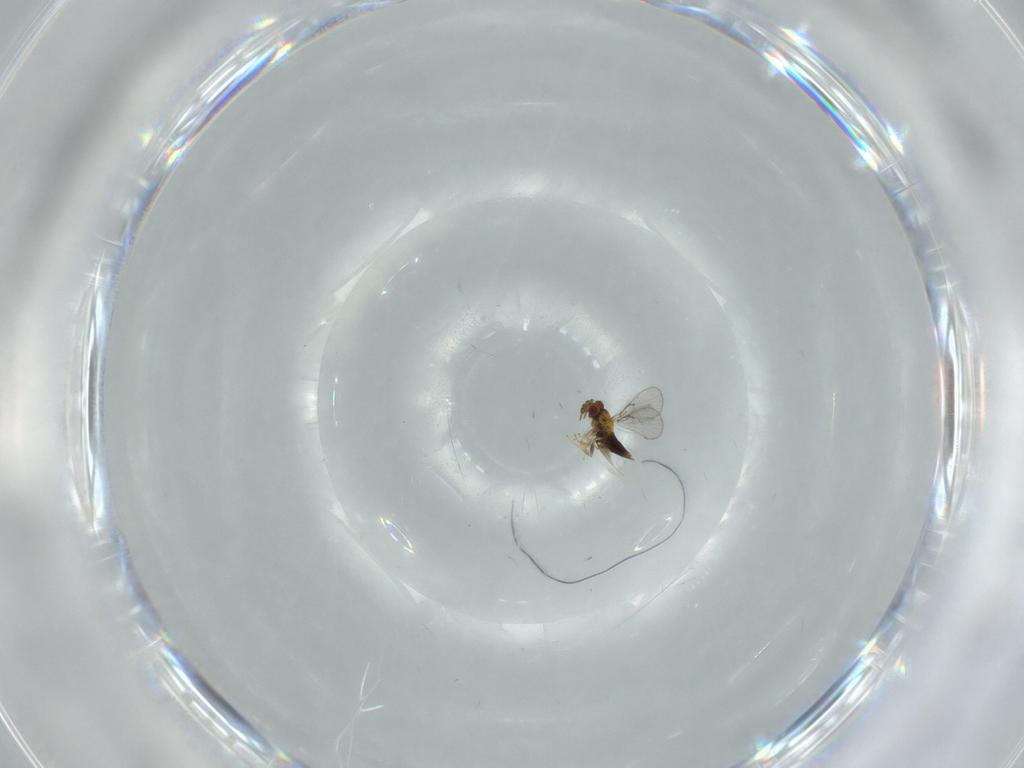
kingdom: Animalia
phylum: Arthropoda
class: Insecta
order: Hymenoptera
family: Trichogrammatidae
